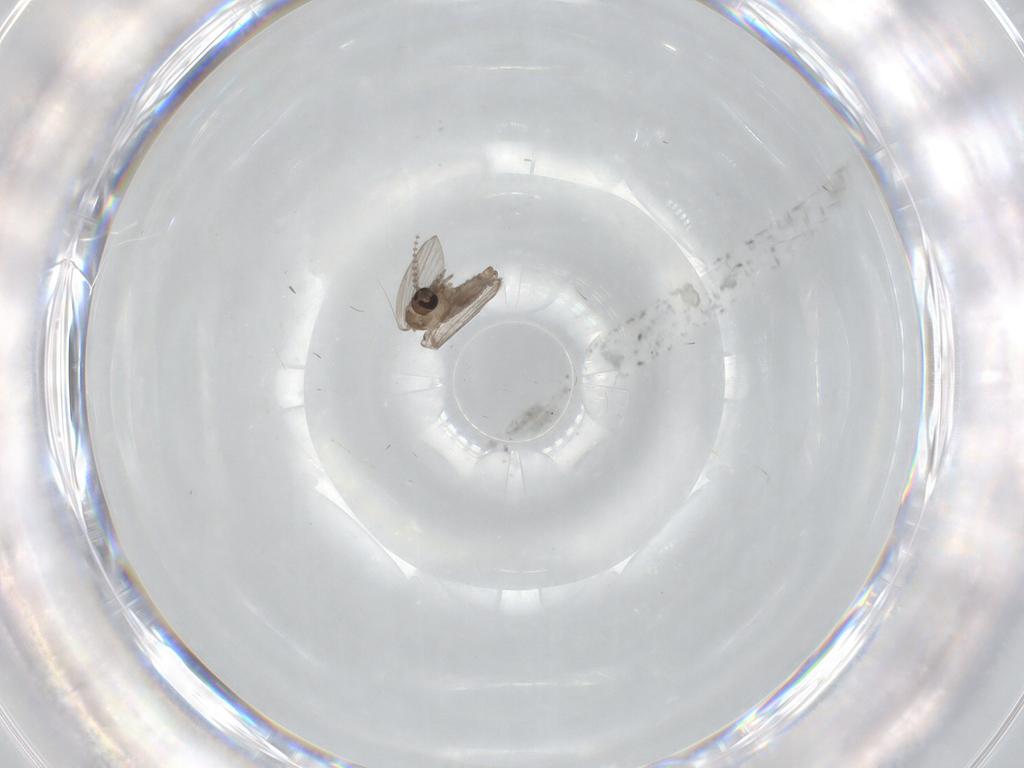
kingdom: Animalia
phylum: Arthropoda
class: Insecta
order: Diptera
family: Psychodidae
